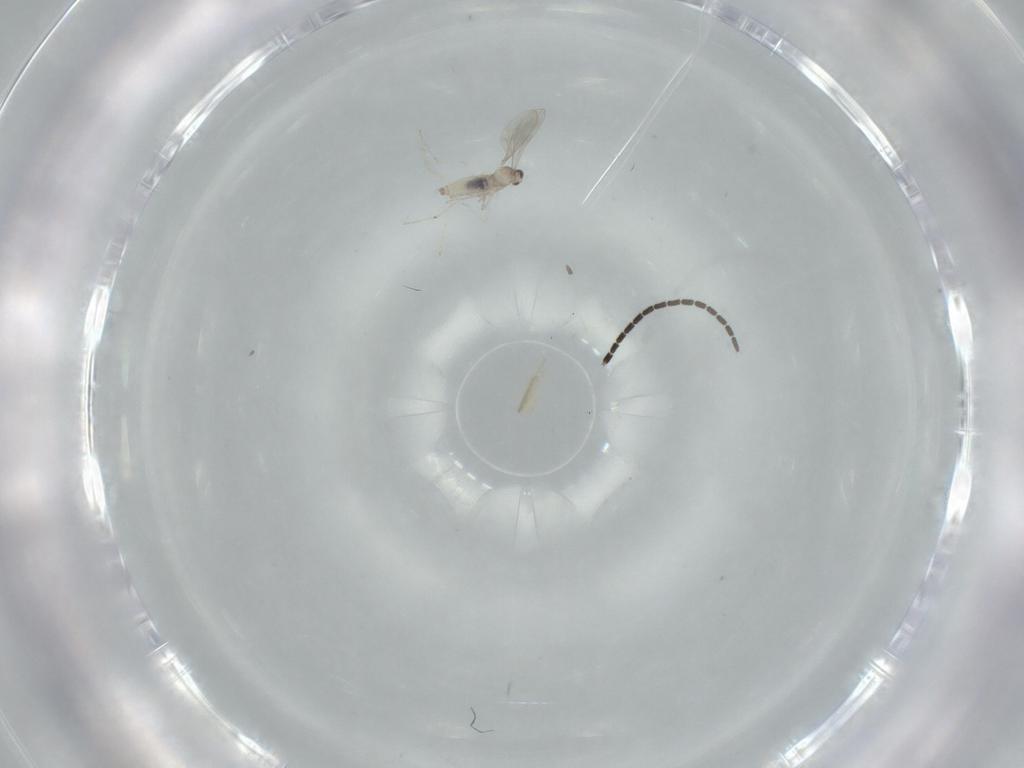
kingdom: Animalia
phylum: Arthropoda
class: Insecta
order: Diptera
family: Sciaridae
